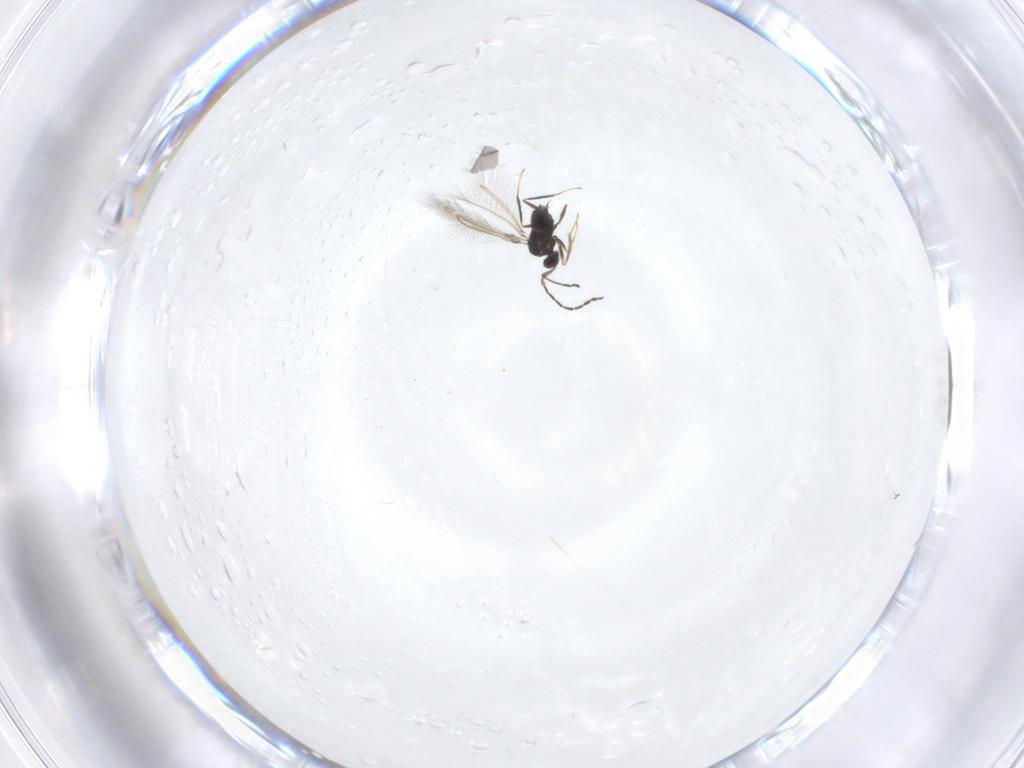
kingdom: Animalia
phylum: Arthropoda
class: Insecta
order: Hymenoptera
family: Mymaridae
